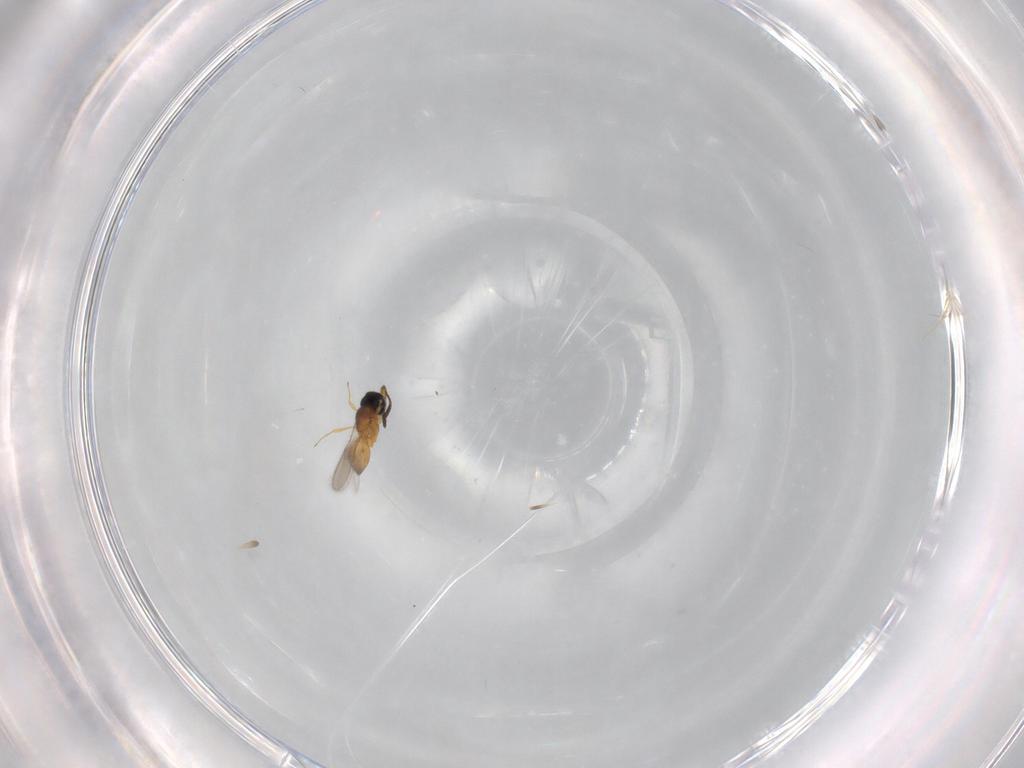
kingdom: Animalia
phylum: Arthropoda
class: Insecta
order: Hymenoptera
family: Scelionidae
